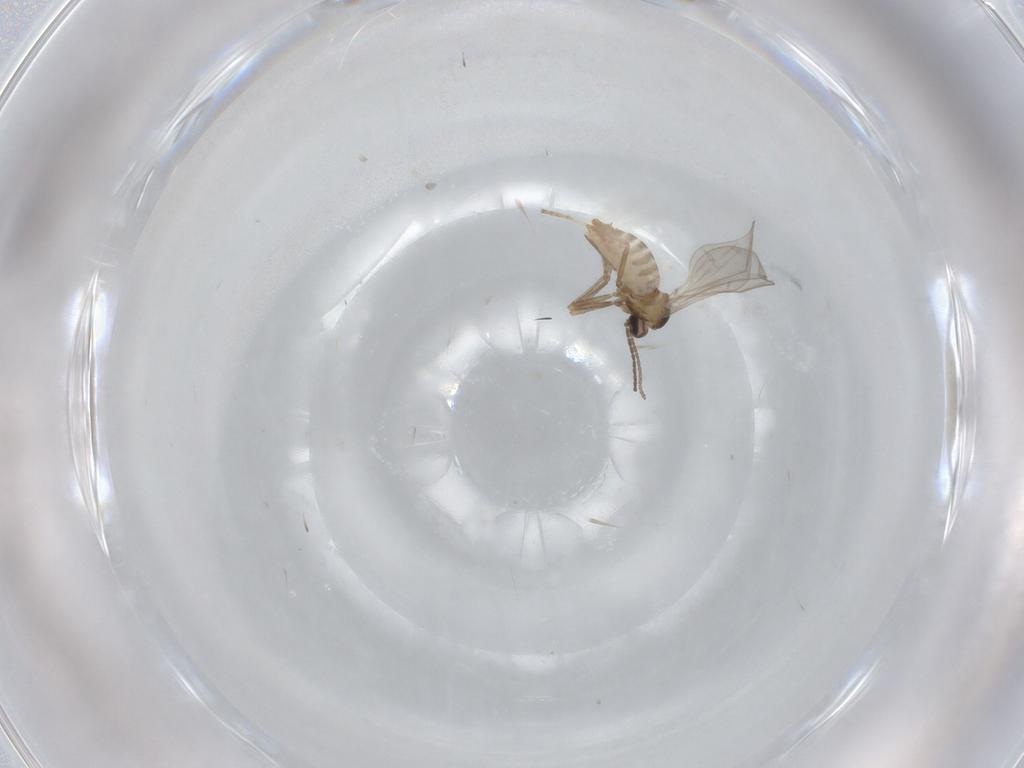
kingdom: Animalia
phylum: Arthropoda
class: Insecta
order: Diptera
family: Cecidomyiidae
